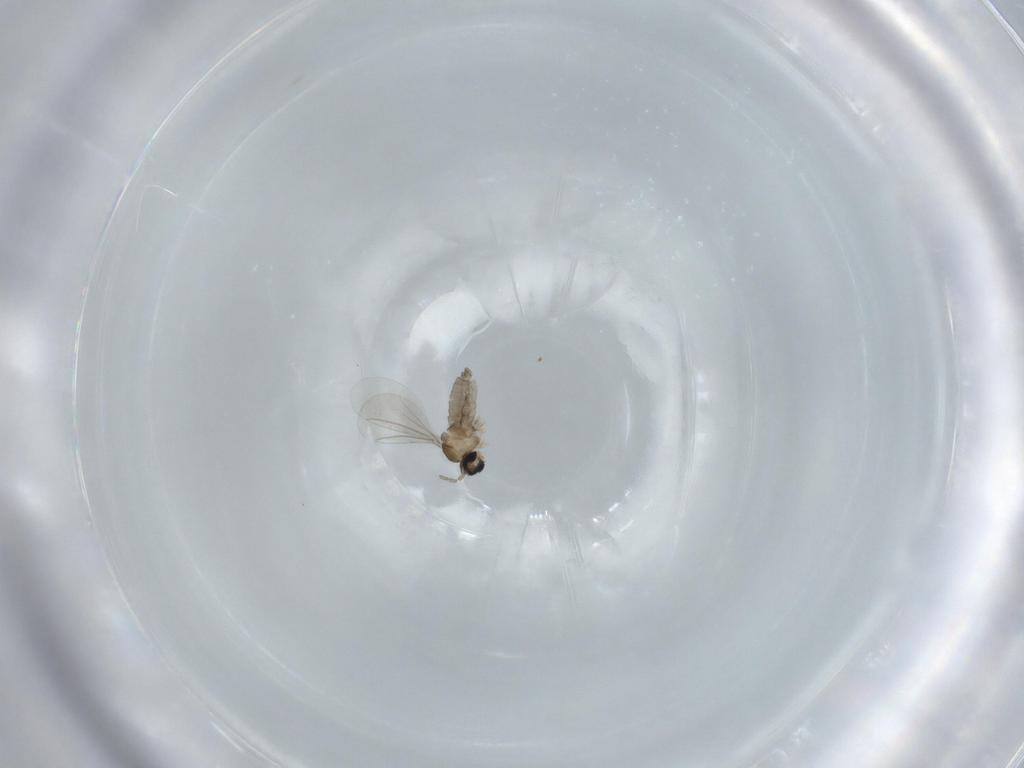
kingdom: Animalia
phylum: Arthropoda
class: Insecta
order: Diptera
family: Cecidomyiidae
